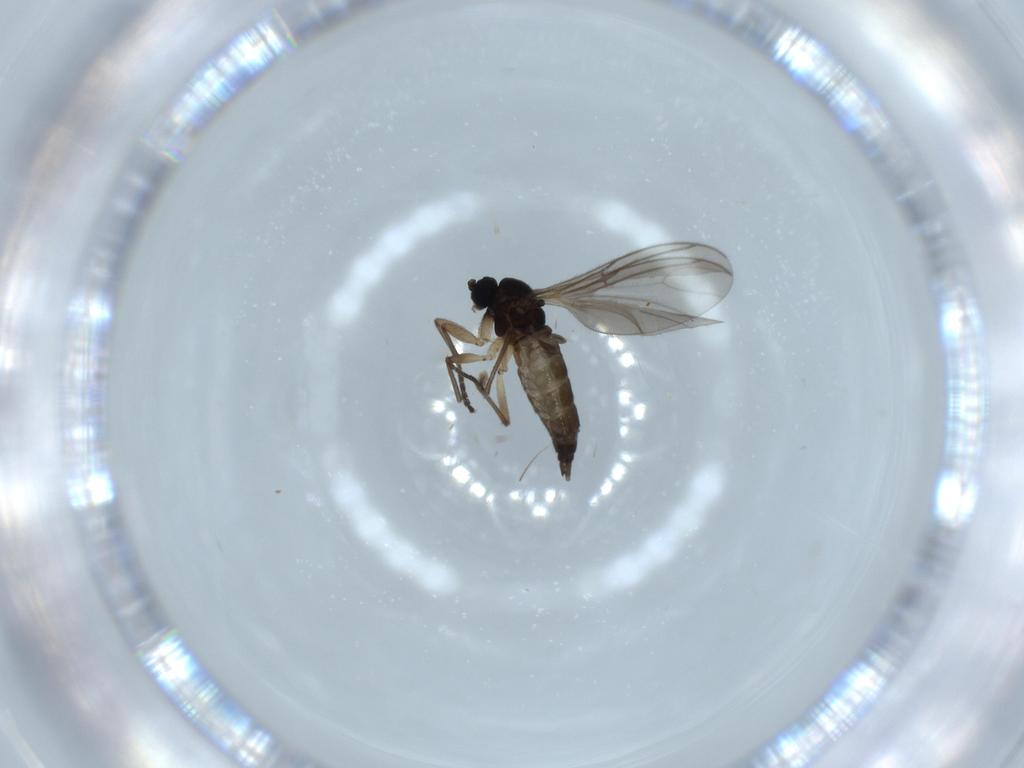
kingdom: Animalia
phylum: Arthropoda
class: Insecta
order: Diptera
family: Sciaridae
